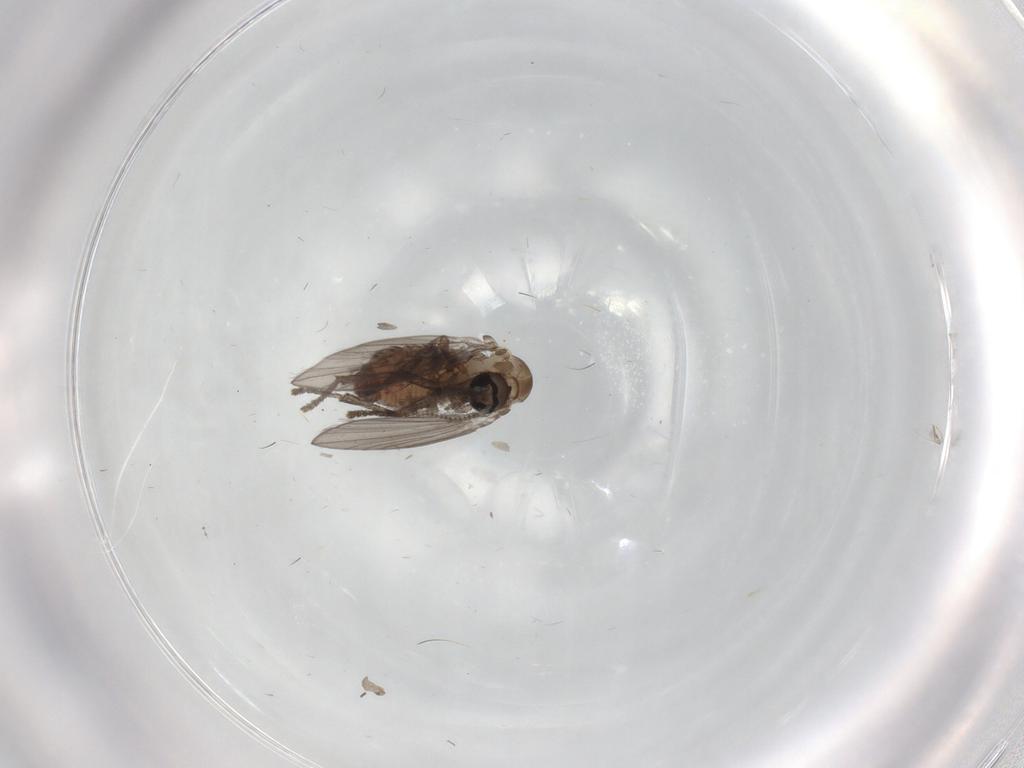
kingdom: Animalia
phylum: Arthropoda
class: Insecta
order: Diptera
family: Psychodidae
